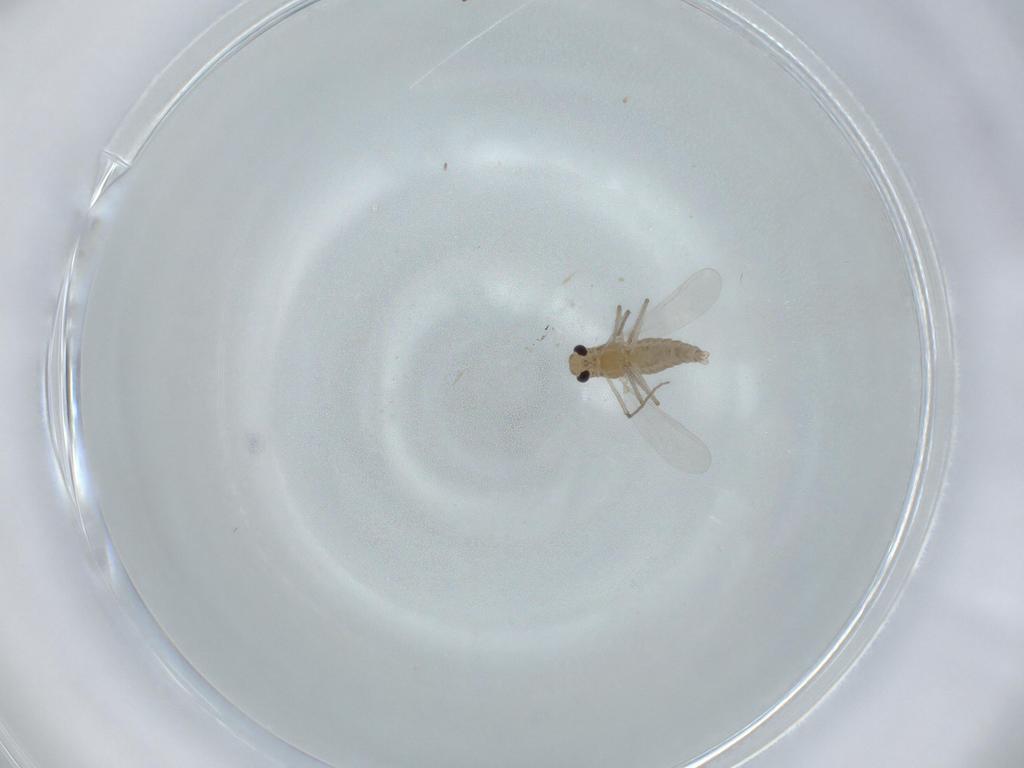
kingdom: Animalia
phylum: Arthropoda
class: Insecta
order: Diptera
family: Chironomidae
